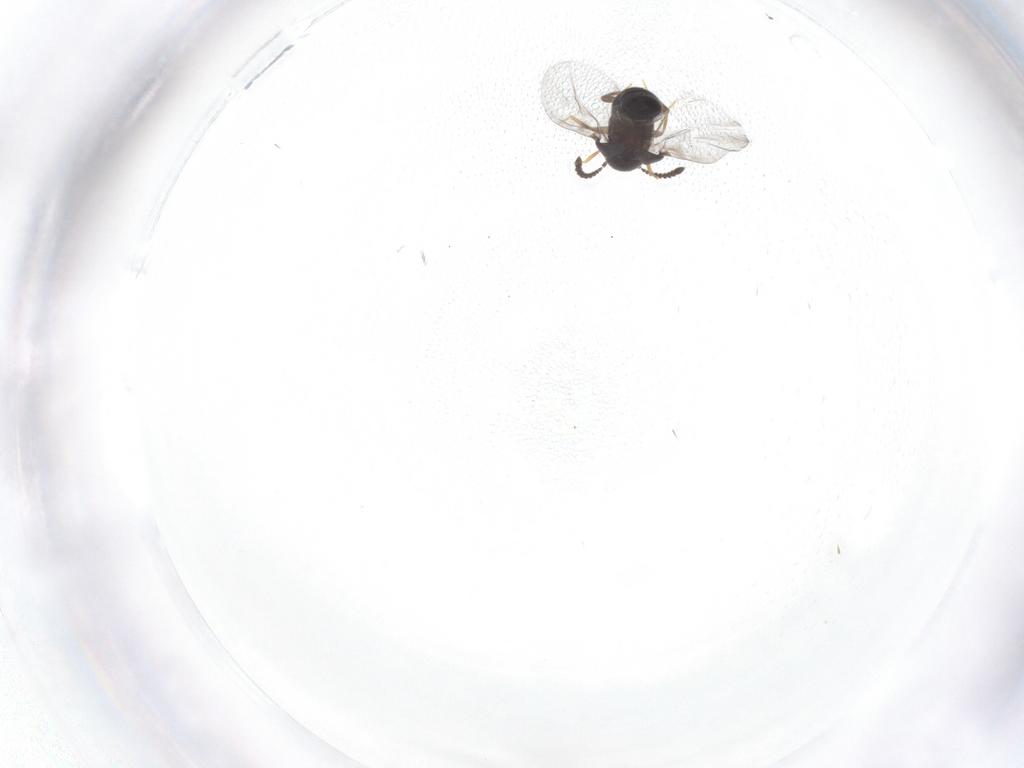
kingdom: Animalia
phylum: Arthropoda
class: Insecta
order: Coleoptera
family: Staphylinidae
